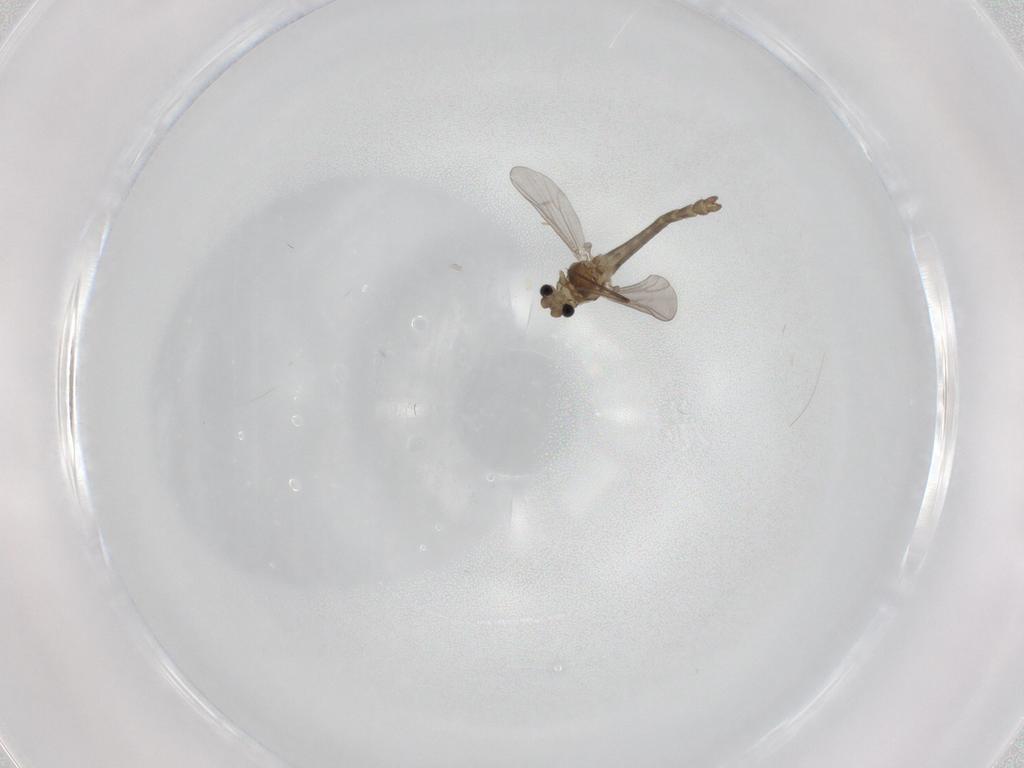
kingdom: Animalia
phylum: Arthropoda
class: Insecta
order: Diptera
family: Chironomidae
